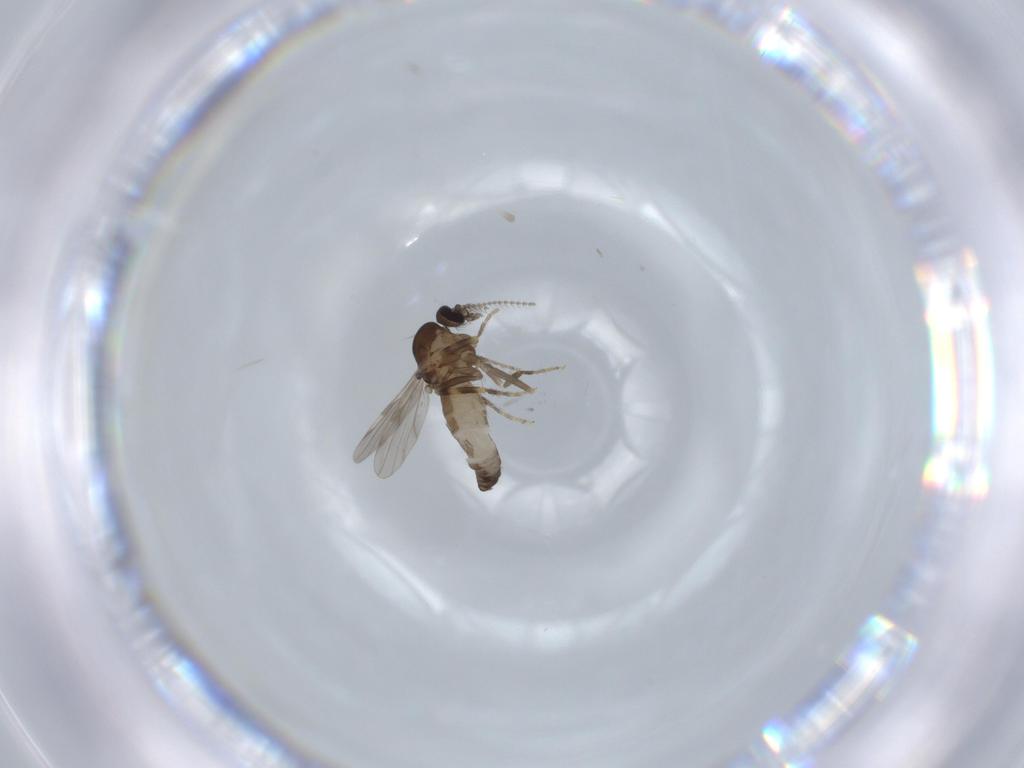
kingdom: Animalia
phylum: Arthropoda
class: Insecta
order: Diptera
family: Ceratopogonidae
